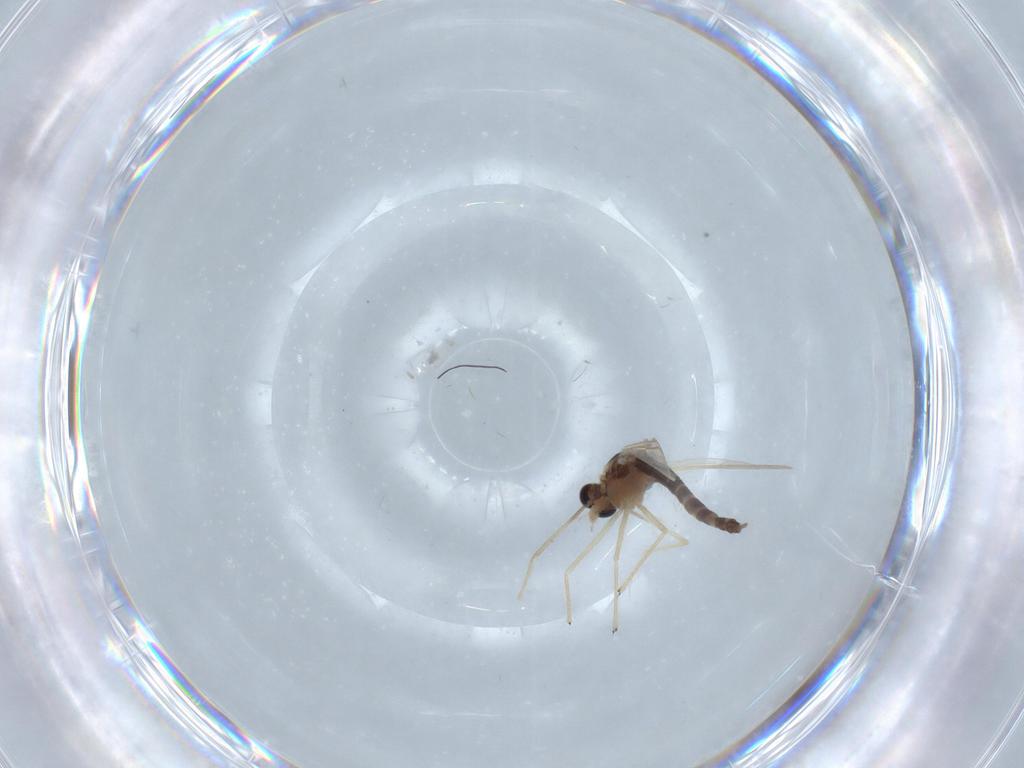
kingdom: Animalia
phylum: Arthropoda
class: Insecta
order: Diptera
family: Chironomidae
